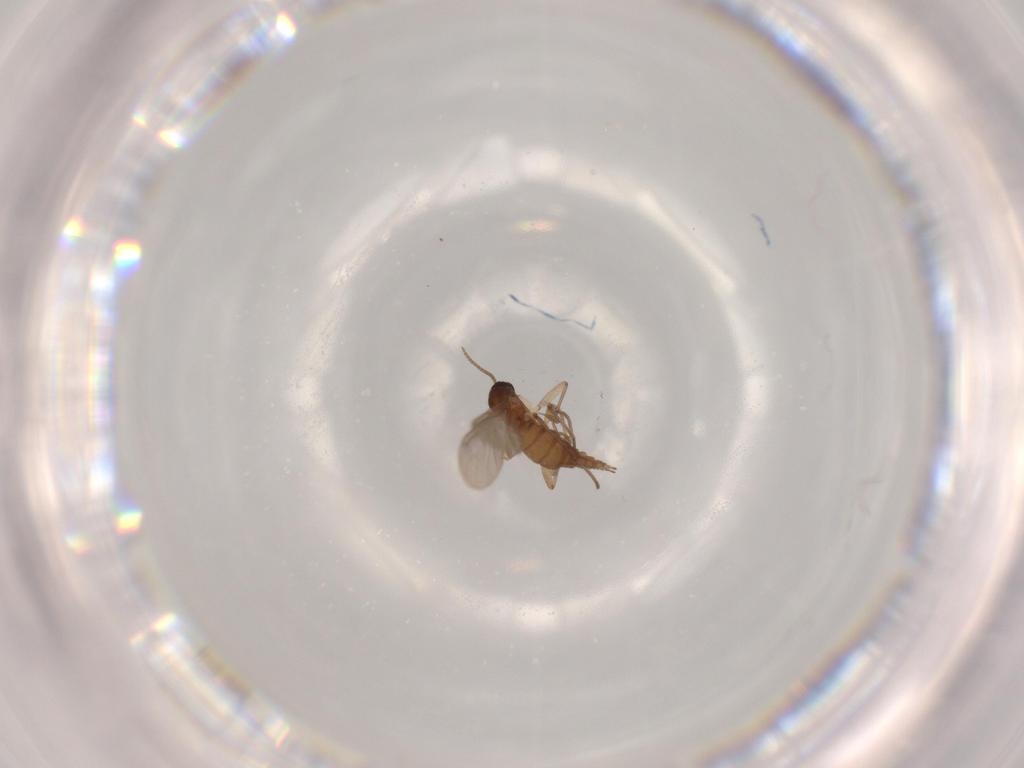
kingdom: Animalia
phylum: Arthropoda
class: Insecta
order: Diptera
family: Sciaridae
